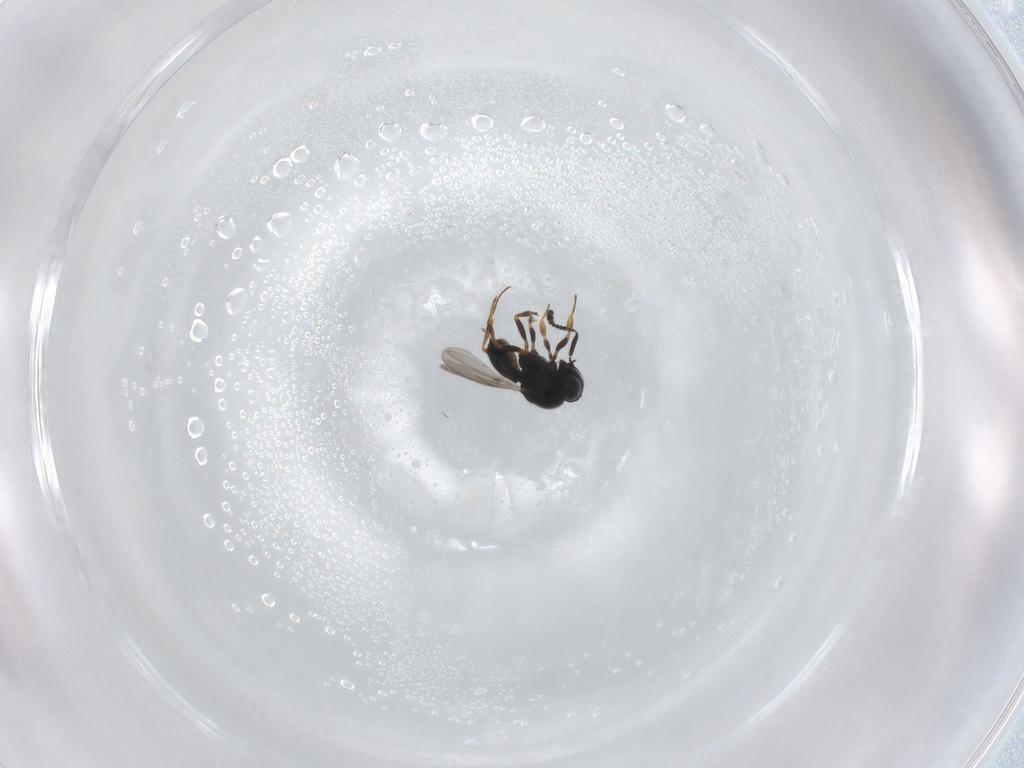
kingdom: Animalia
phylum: Arthropoda
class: Insecta
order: Hymenoptera
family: Scelionidae
